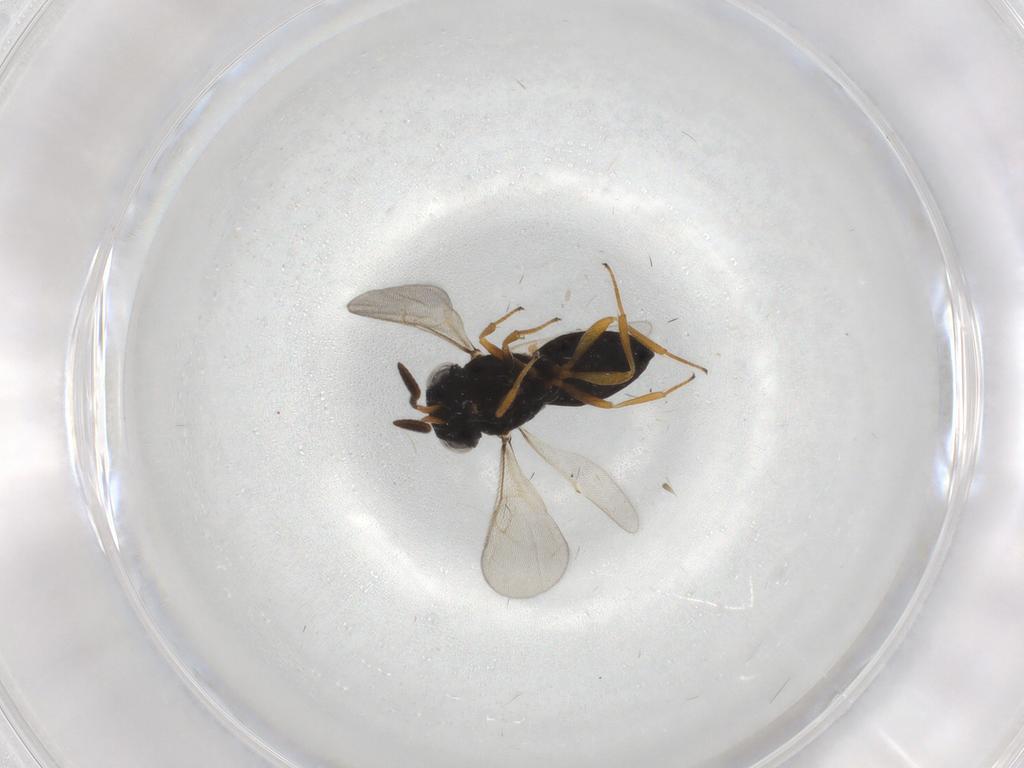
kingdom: Animalia
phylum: Arthropoda
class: Insecta
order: Hymenoptera
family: Scelionidae
